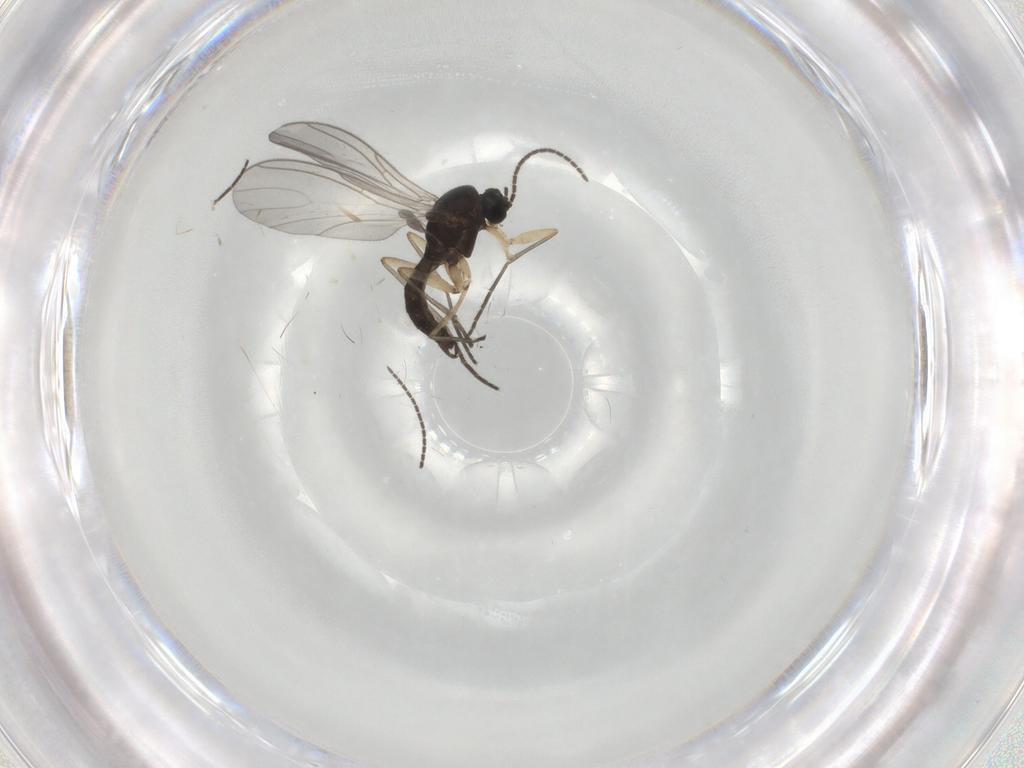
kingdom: Animalia
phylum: Arthropoda
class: Insecta
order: Diptera
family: Sciaridae
